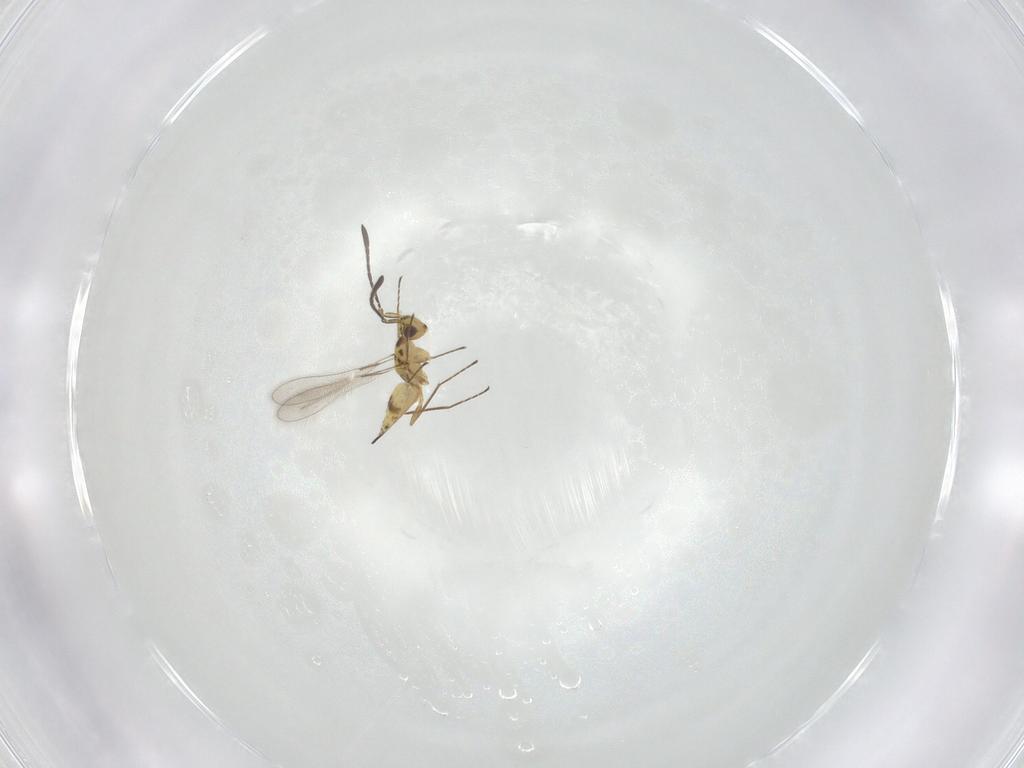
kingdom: Animalia
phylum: Arthropoda
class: Insecta
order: Hymenoptera
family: Mymaridae
